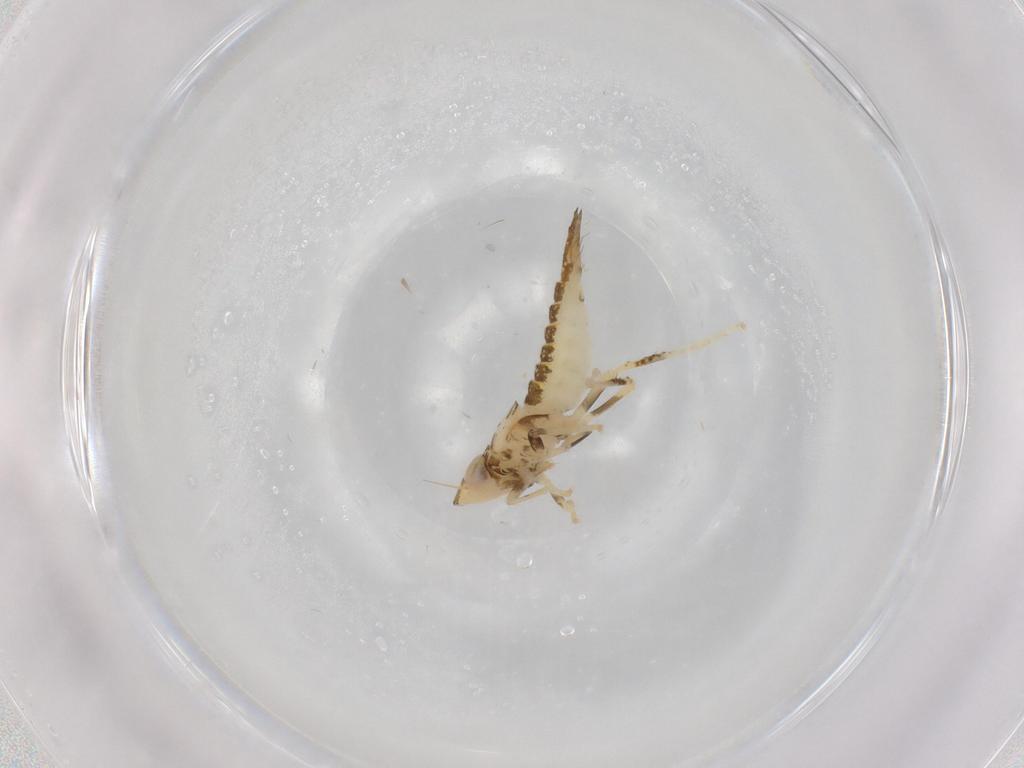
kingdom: Animalia
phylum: Arthropoda
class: Insecta
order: Hemiptera
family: Cicadellidae
